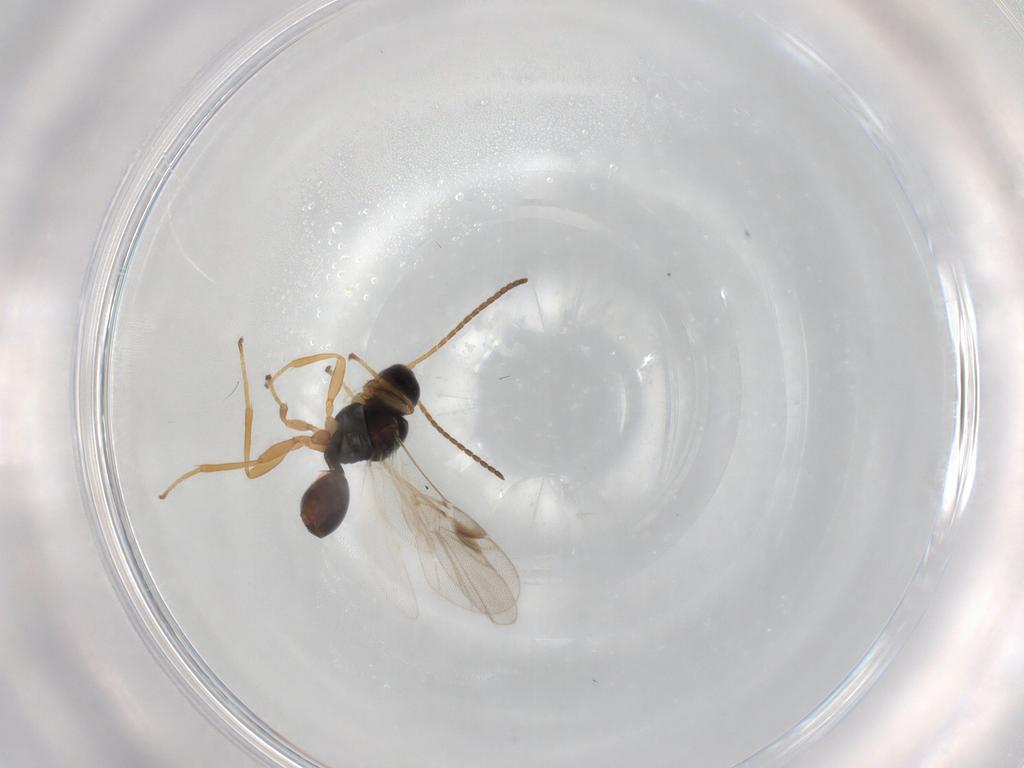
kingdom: Animalia
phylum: Arthropoda
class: Insecta
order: Hymenoptera
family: Braconidae
